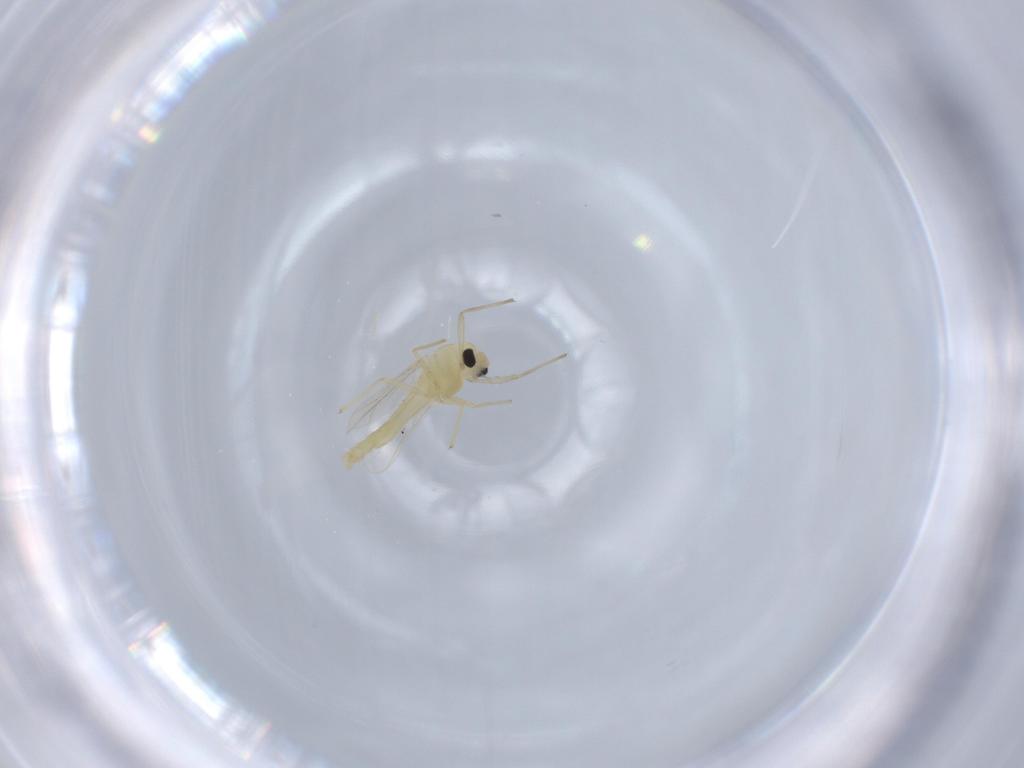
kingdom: Animalia
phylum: Arthropoda
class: Insecta
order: Diptera
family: Chironomidae
